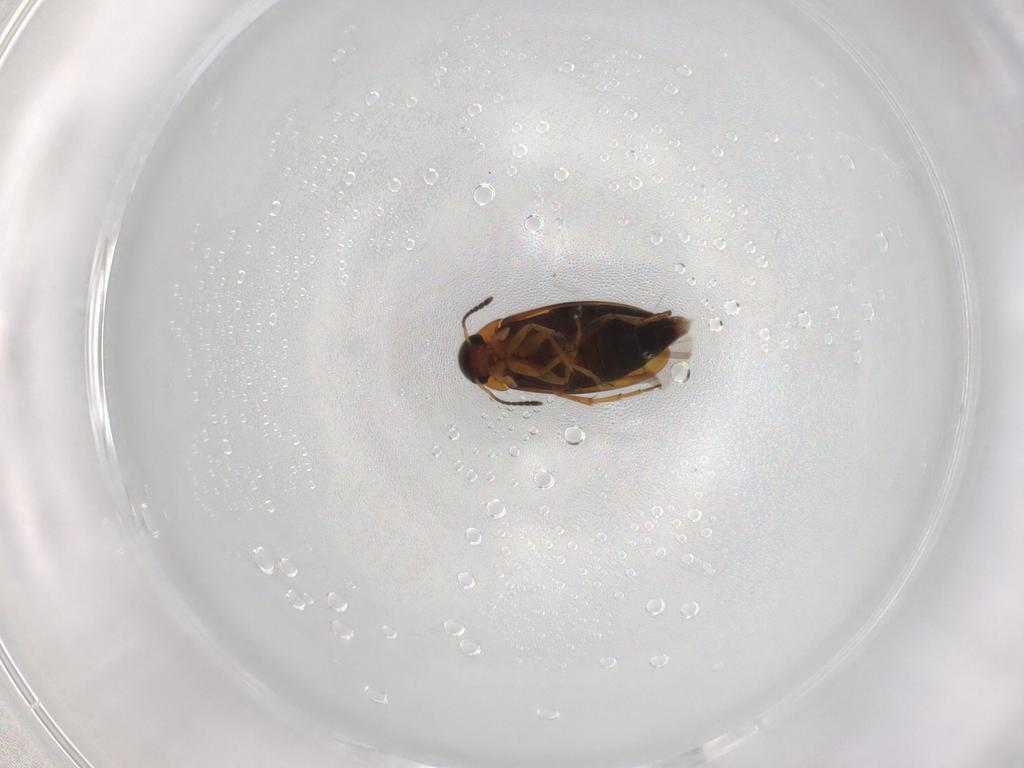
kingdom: Animalia
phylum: Arthropoda
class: Insecta
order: Coleoptera
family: Scraptiidae
